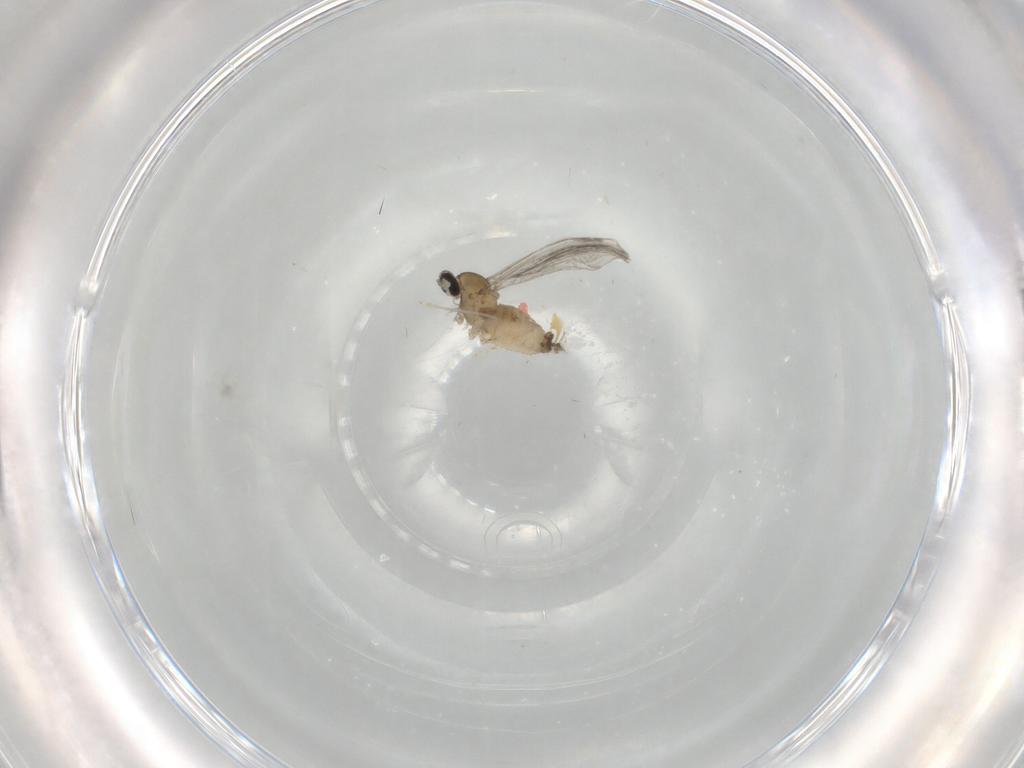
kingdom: Animalia
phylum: Arthropoda
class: Insecta
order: Diptera
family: Cecidomyiidae
